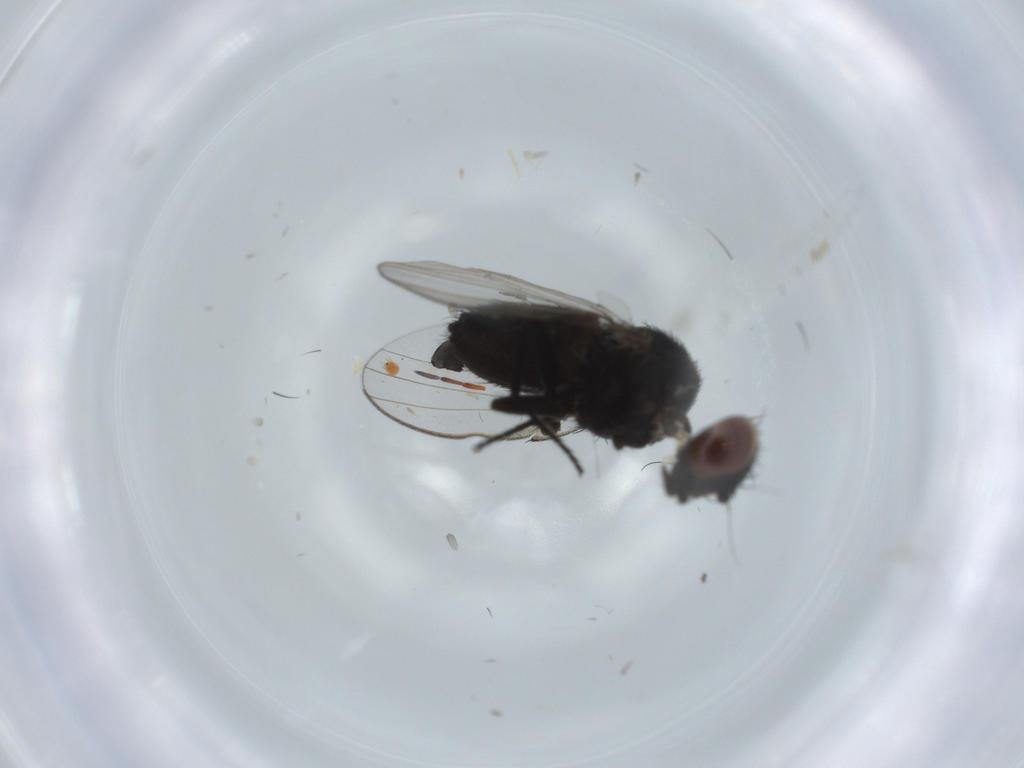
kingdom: Animalia
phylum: Arthropoda
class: Insecta
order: Diptera
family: Milichiidae
